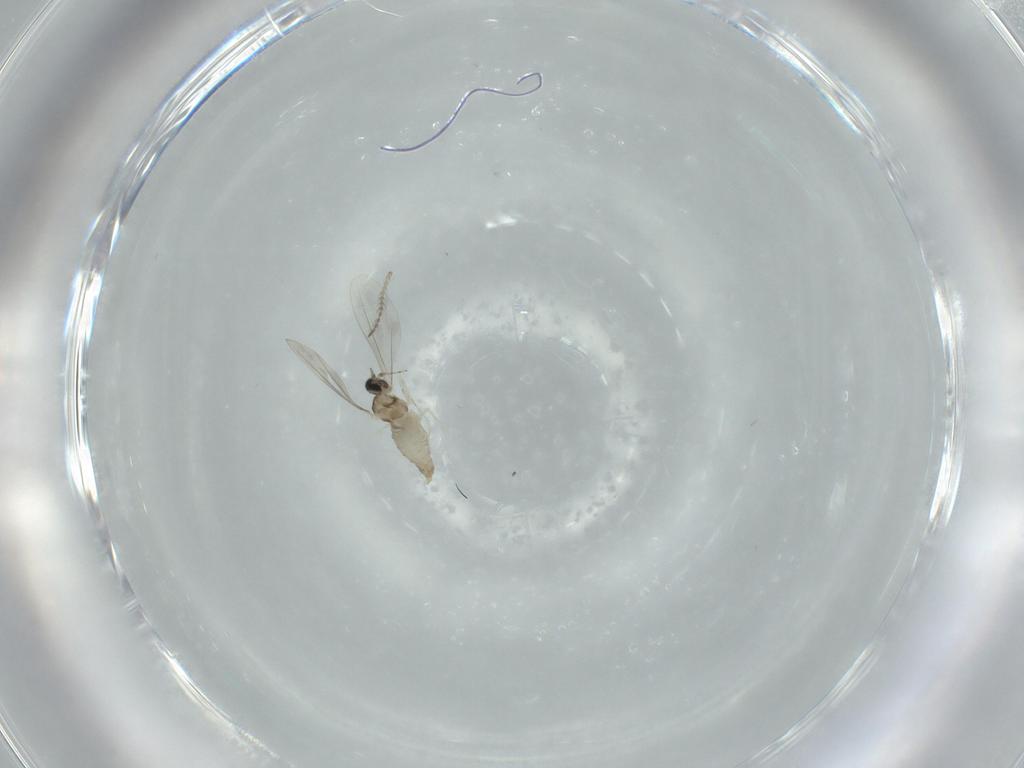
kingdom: Animalia
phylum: Arthropoda
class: Insecta
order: Diptera
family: Cecidomyiidae
